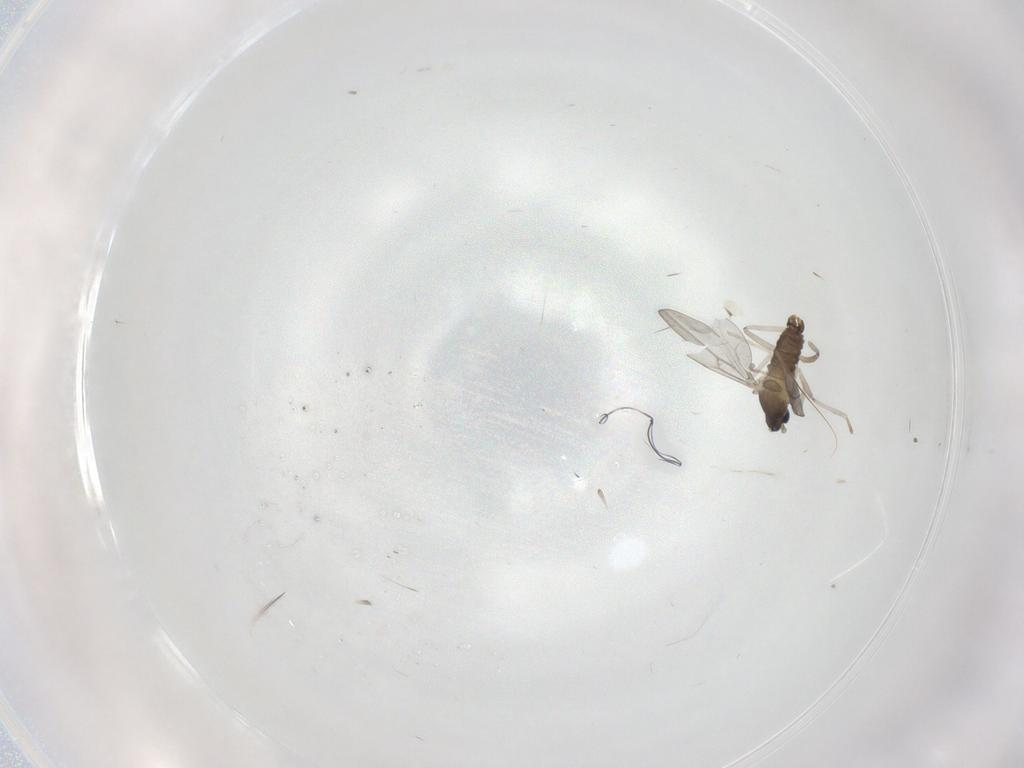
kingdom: Animalia
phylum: Arthropoda
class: Insecta
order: Diptera
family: Cecidomyiidae
